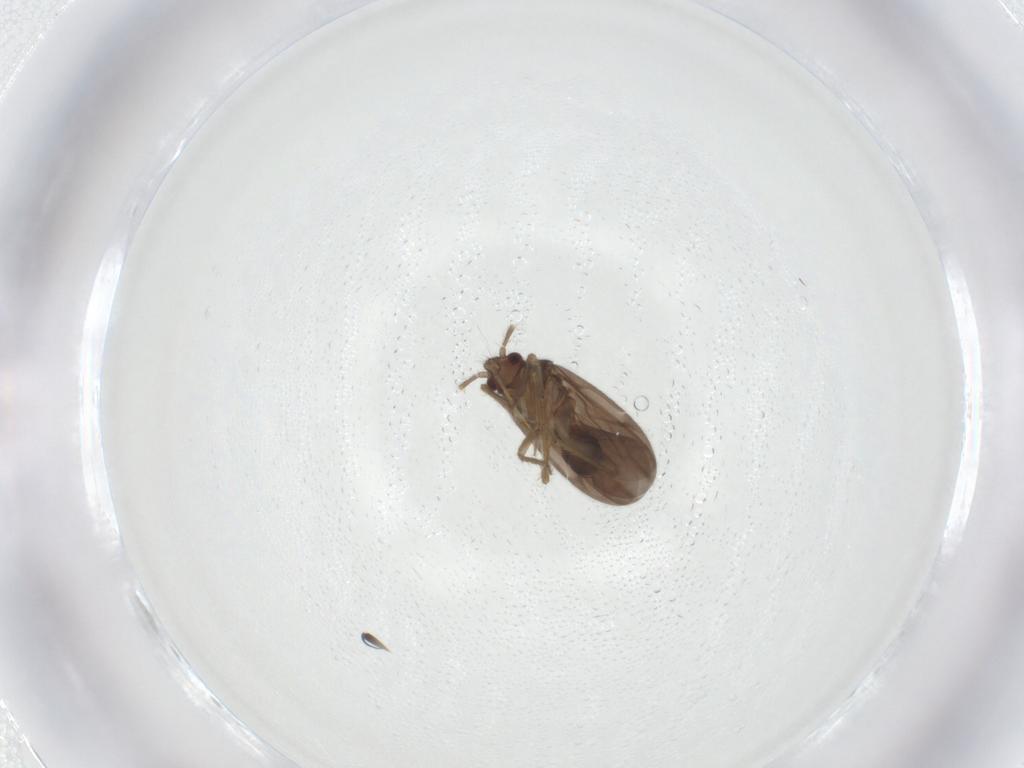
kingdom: Animalia
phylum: Arthropoda
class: Insecta
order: Hemiptera
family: Ceratocombidae
